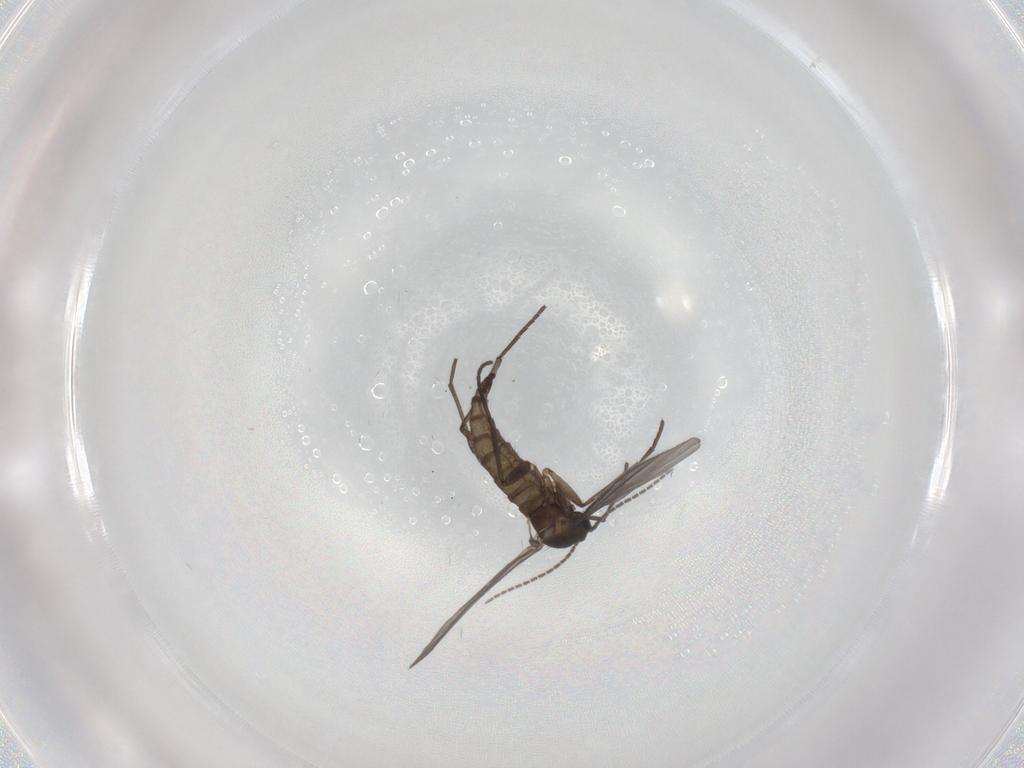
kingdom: Animalia
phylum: Arthropoda
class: Insecta
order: Diptera
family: Sciaridae
